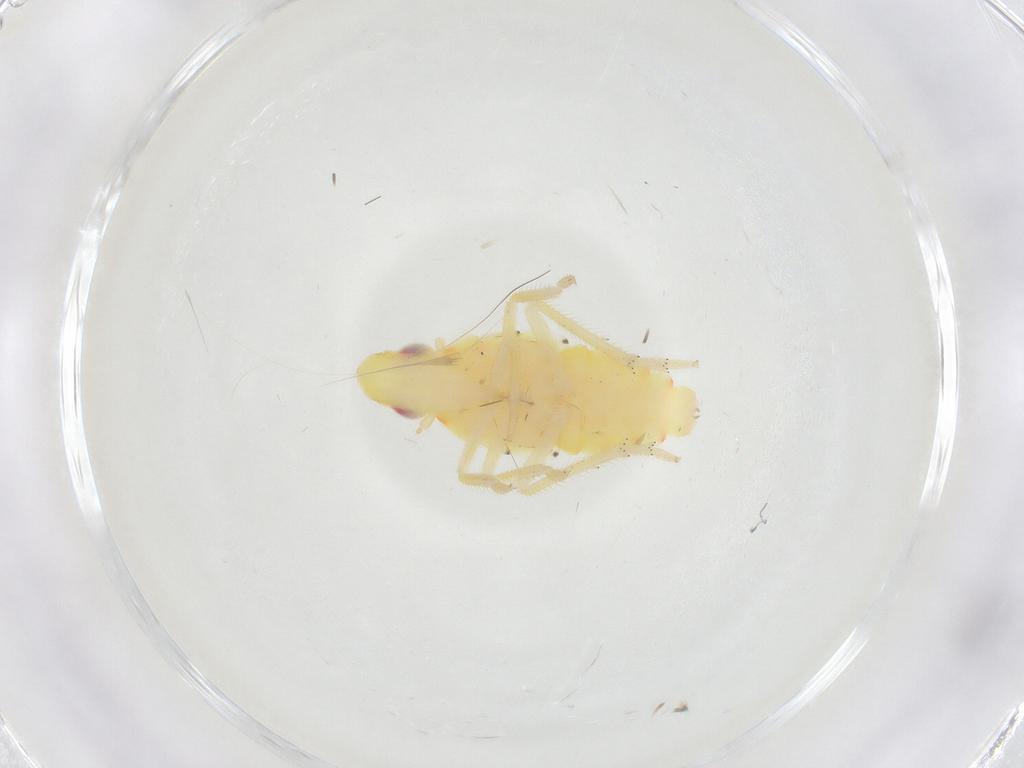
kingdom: Animalia
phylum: Arthropoda
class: Insecta
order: Hemiptera
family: Tropiduchidae
